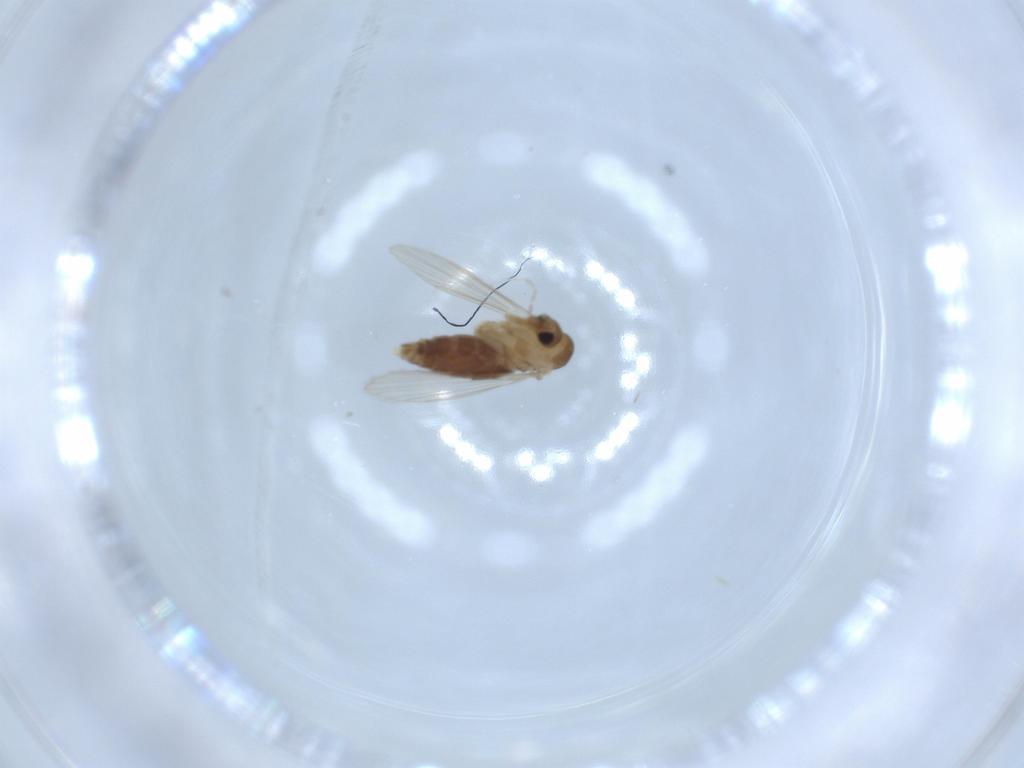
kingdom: Animalia
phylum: Arthropoda
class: Insecta
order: Diptera
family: Psychodidae
